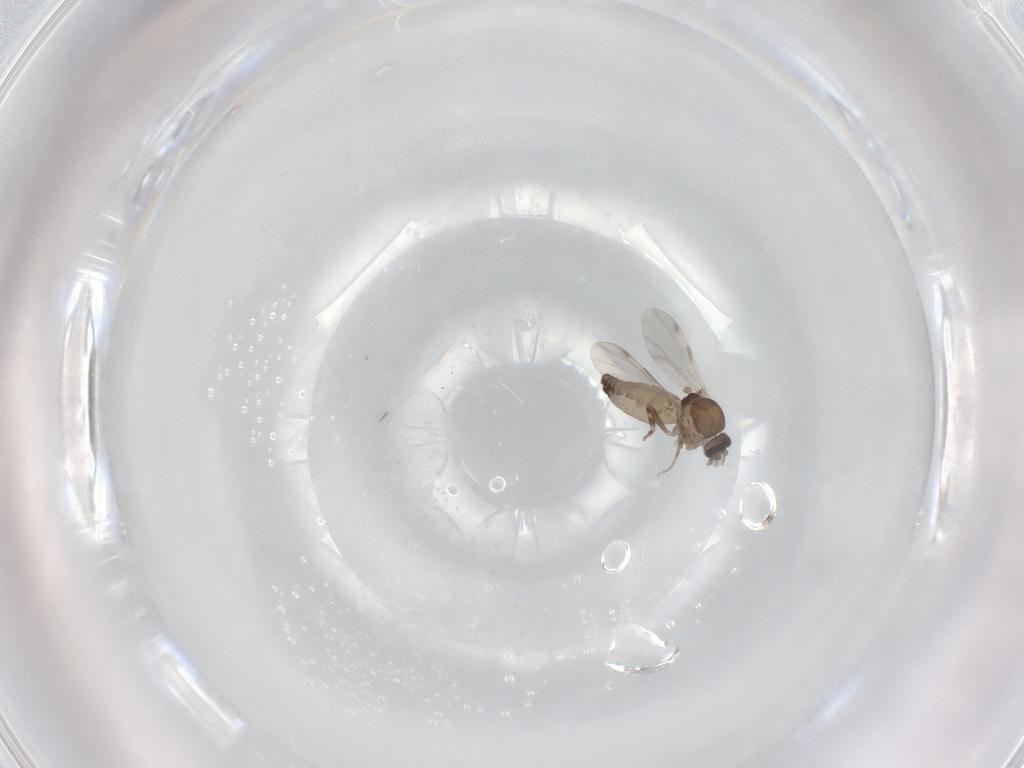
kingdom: Animalia
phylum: Arthropoda
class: Insecta
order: Diptera
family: Ceratopogonidae
